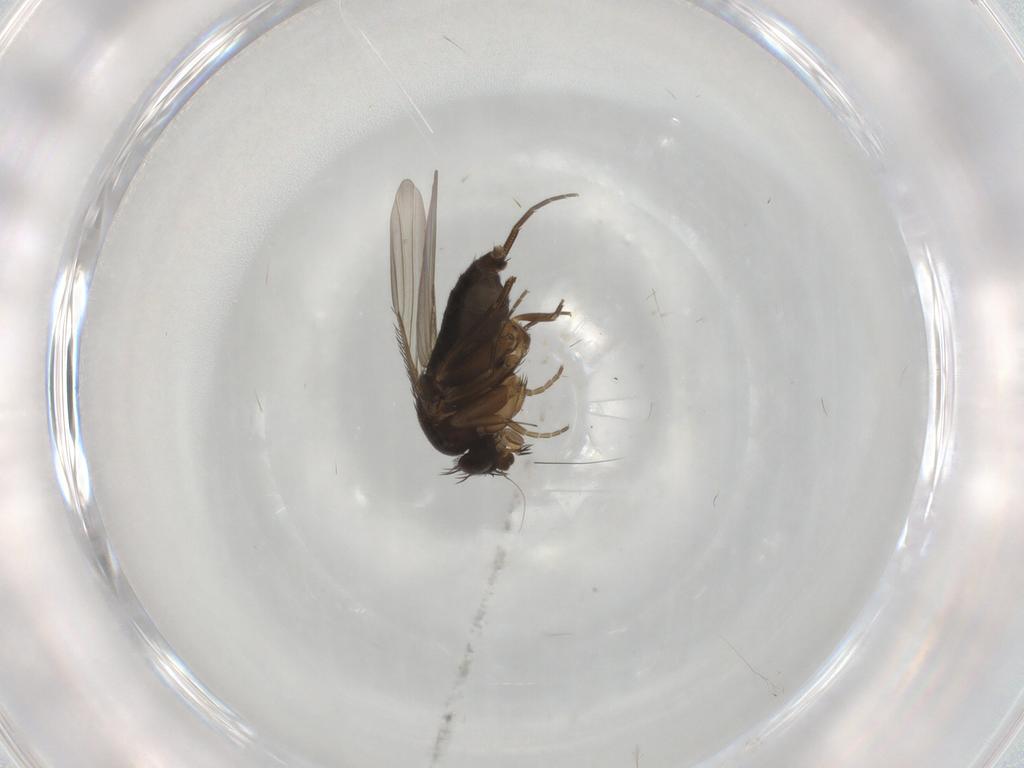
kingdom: Animalia
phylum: Arthropoda
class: Insecta
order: Diptera
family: Phoridae
